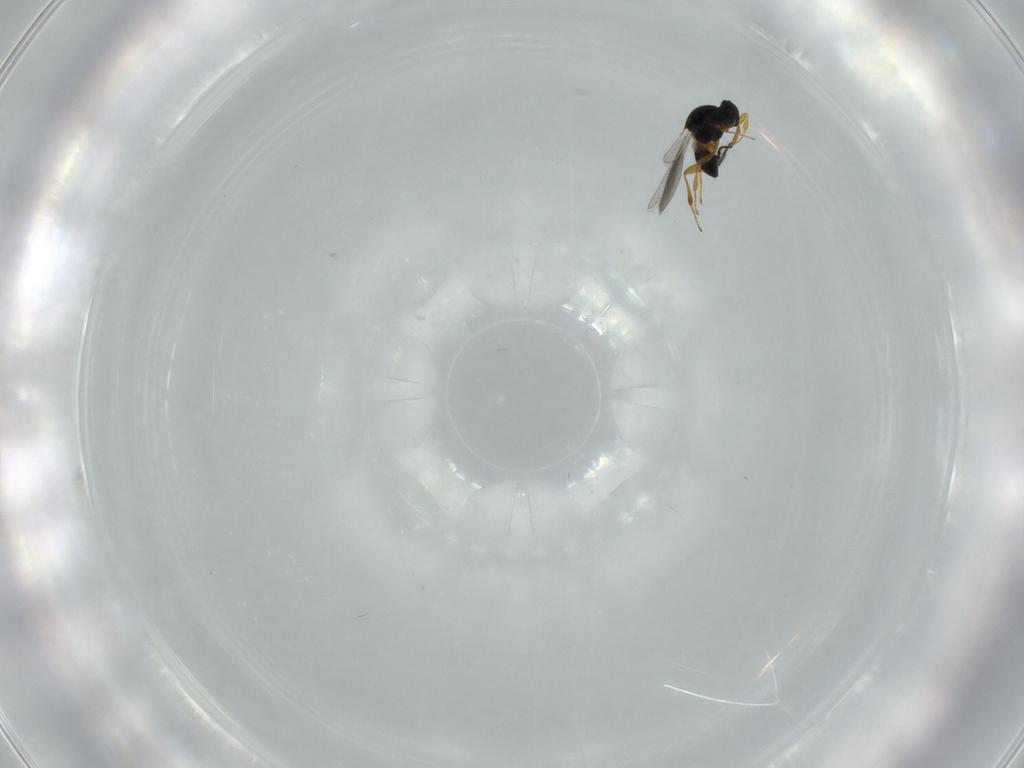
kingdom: Animalia
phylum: Arthropoda
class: Insecta
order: Hymenoptera
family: Platygastridae
